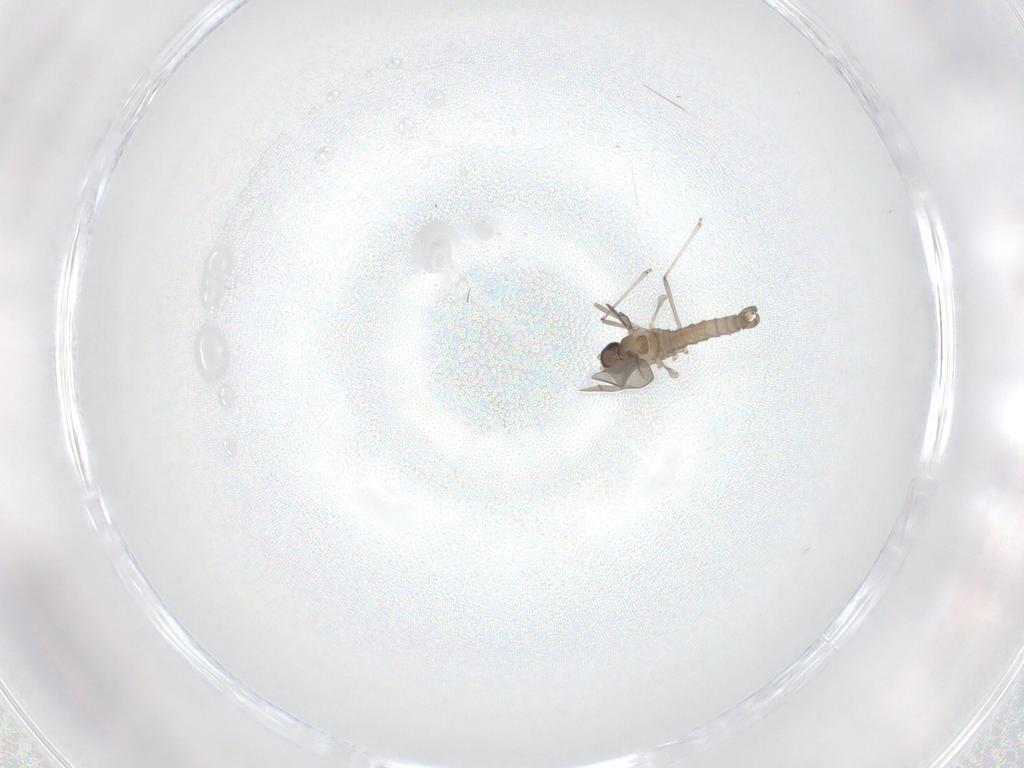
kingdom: Animalia
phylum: Arthropoda
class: Insecta
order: Diptera
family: Cecidomyiidae
